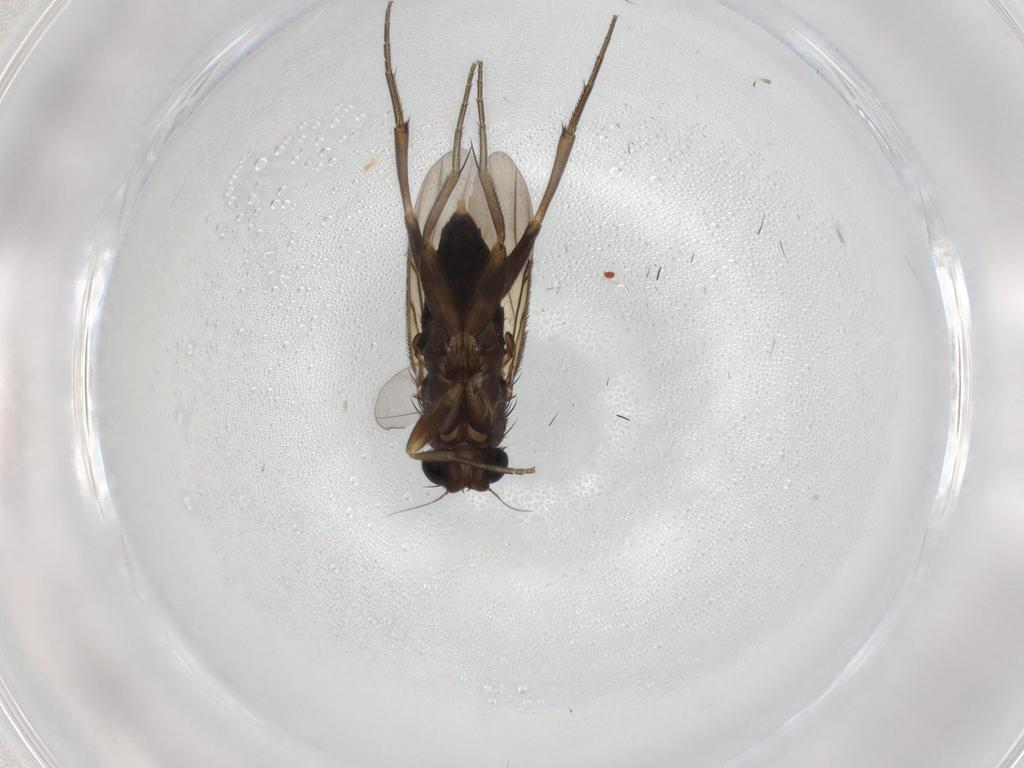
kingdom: Animalia
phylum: Arthropoda
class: Insecta
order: Diptera
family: Phoridae
